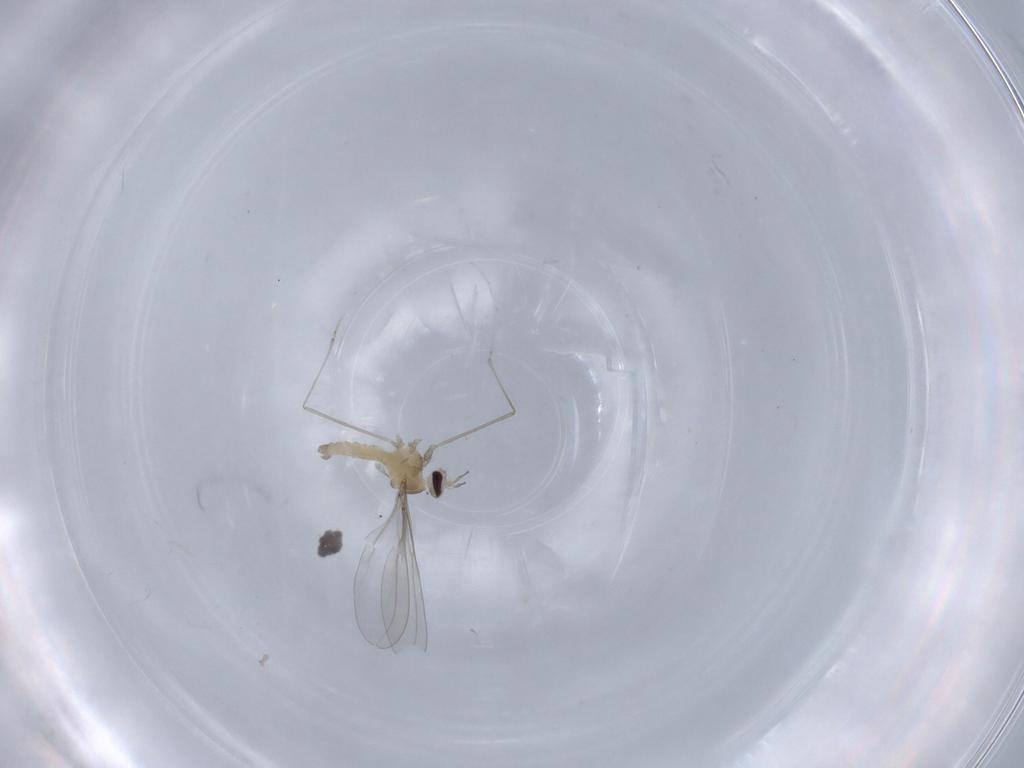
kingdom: Animalia
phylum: Arthropoda
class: Insecta
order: Diptera
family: Cecidomyiidae
